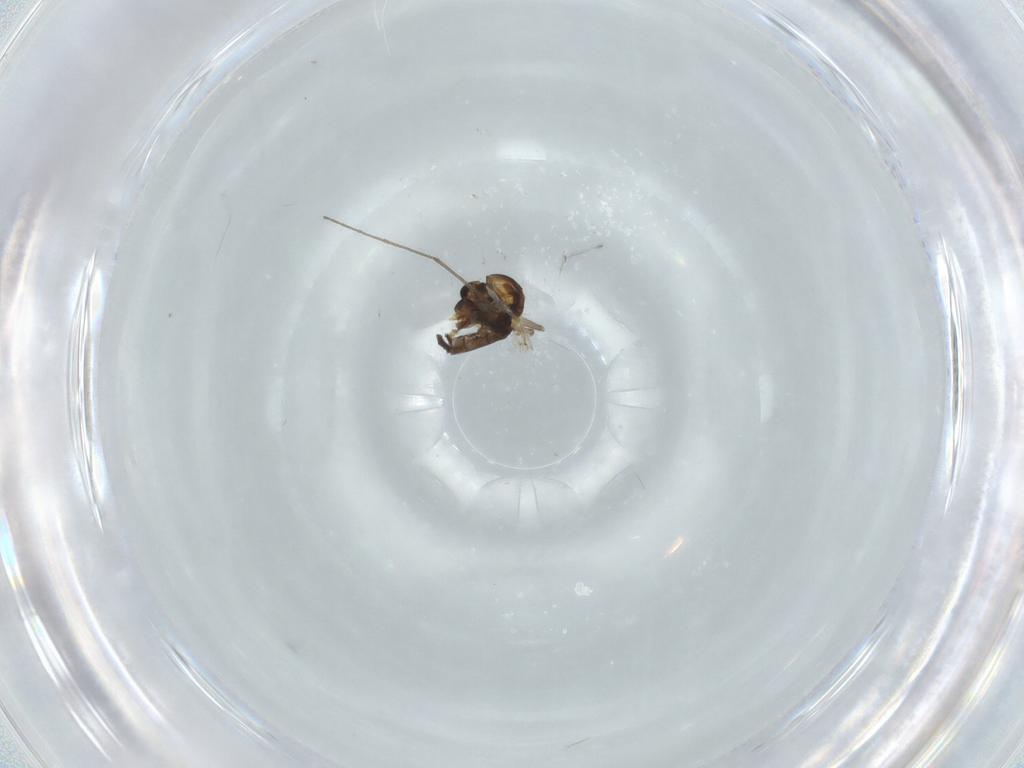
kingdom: Animalia
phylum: Arthropoda
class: Insecta
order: Diptera
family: Chironomidae
